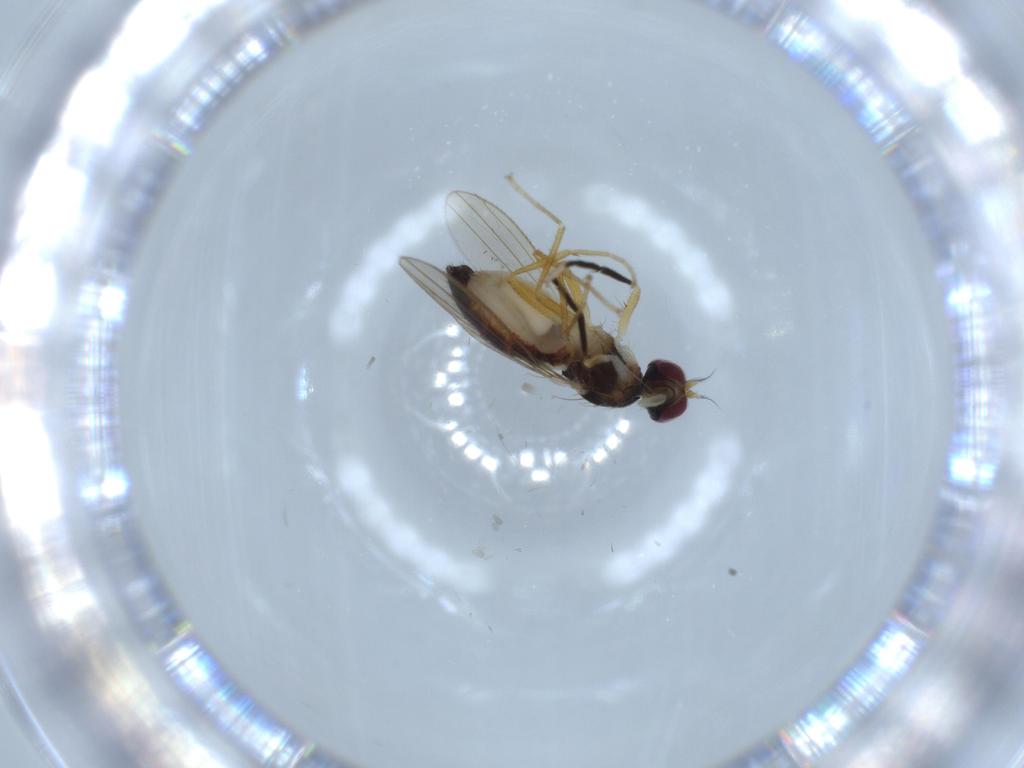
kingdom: Animalia
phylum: Arthropoda
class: Insecta
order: Diptera
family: Anthomyzidae
